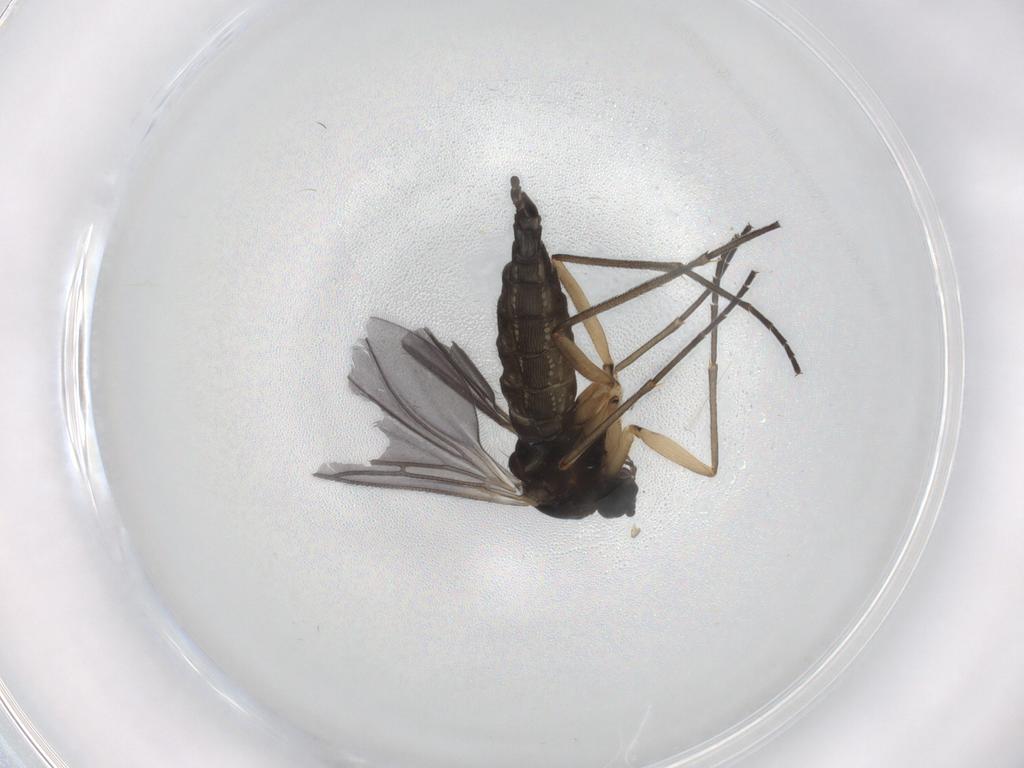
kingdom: Animalia
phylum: Arthropoda
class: Insecta
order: Diptera
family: Sciaridae
